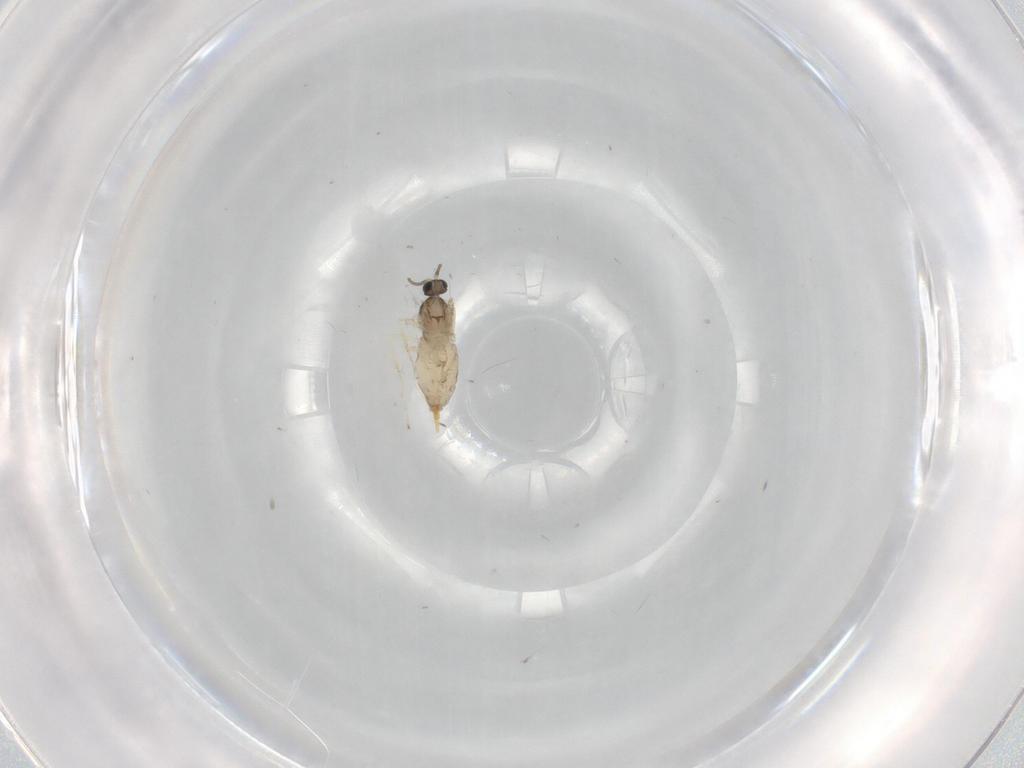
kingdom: Animalia
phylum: Arthropoda
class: Insecta
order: Diptera
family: Cecidomyiidae
